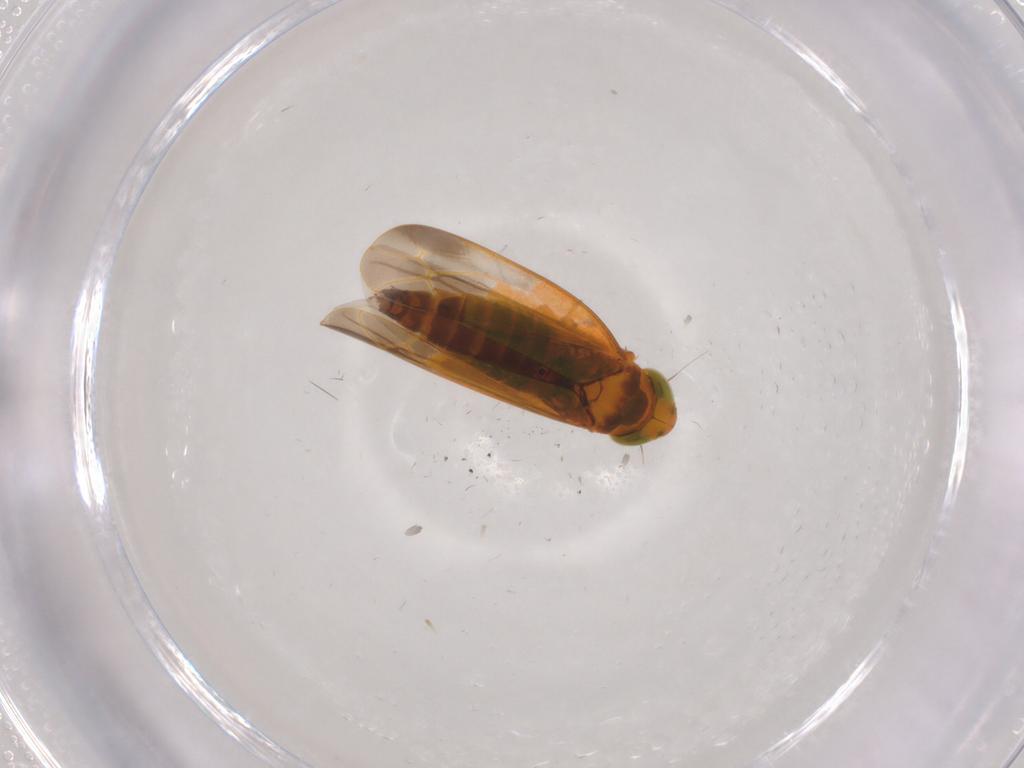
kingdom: Animalia
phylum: Arthropoda
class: Insecta
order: Hemiptera
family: Cicadellidae
